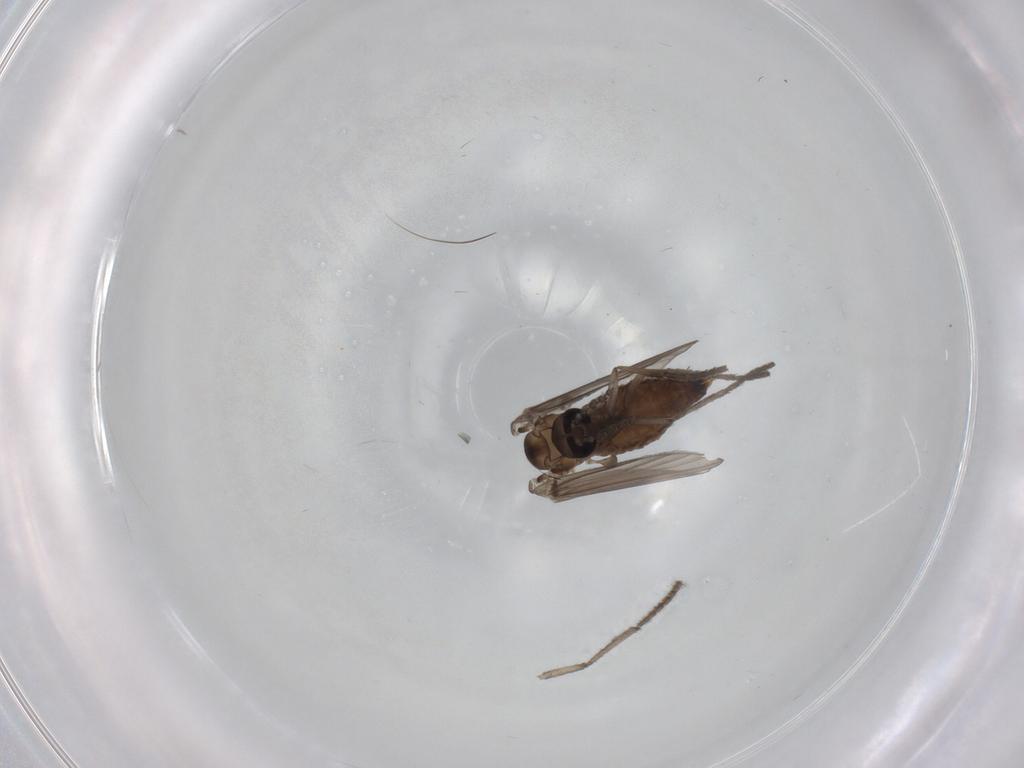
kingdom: Animalia
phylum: Arthropoda
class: Insecta
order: Diptera
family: Psychodidae
